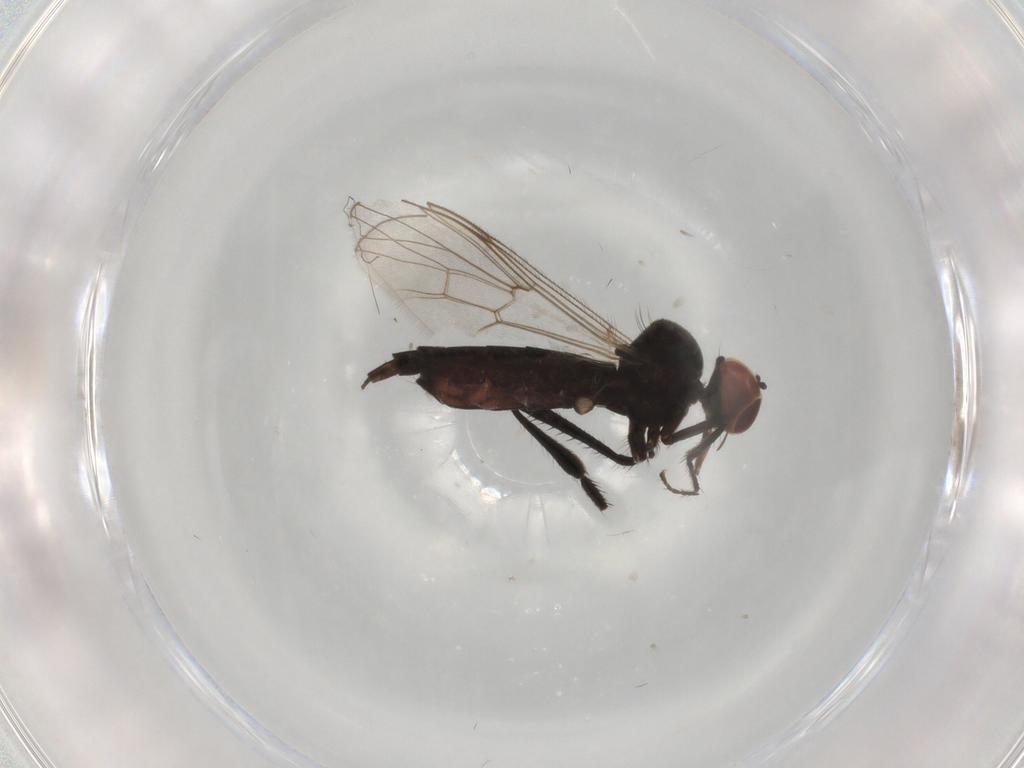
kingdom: Animalia
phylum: Arthropoda
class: Insecta
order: Diptera
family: Hybotidae
